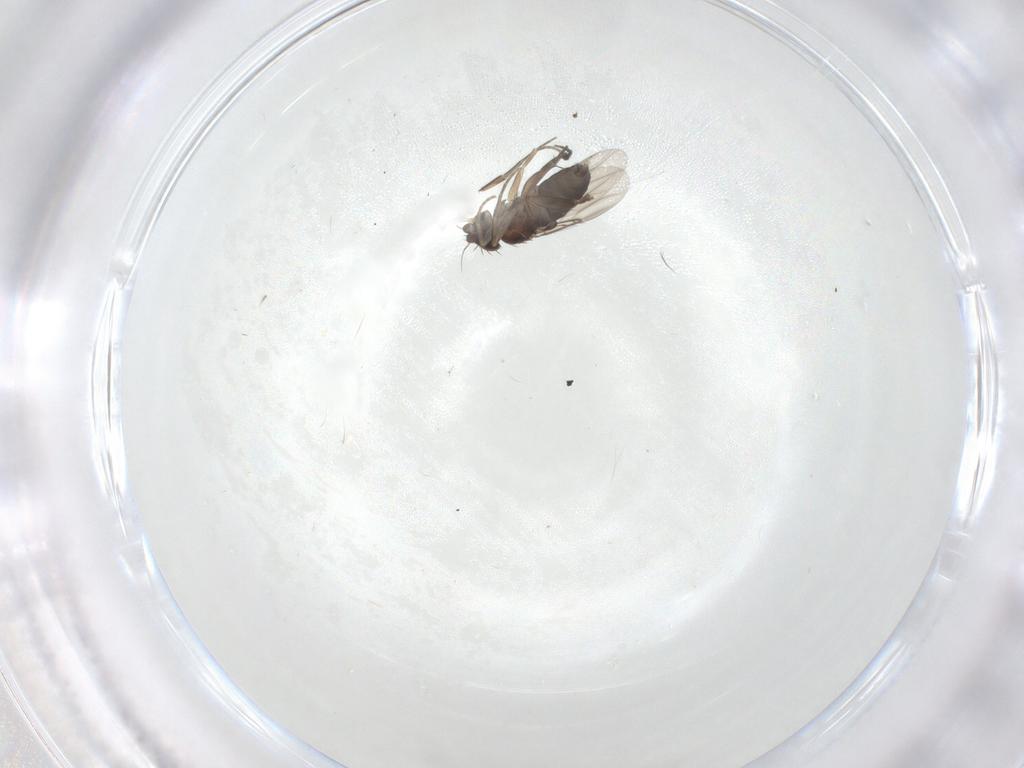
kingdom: Animalia
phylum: Arthropoda
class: Insecta
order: Diptera
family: Phoridae
